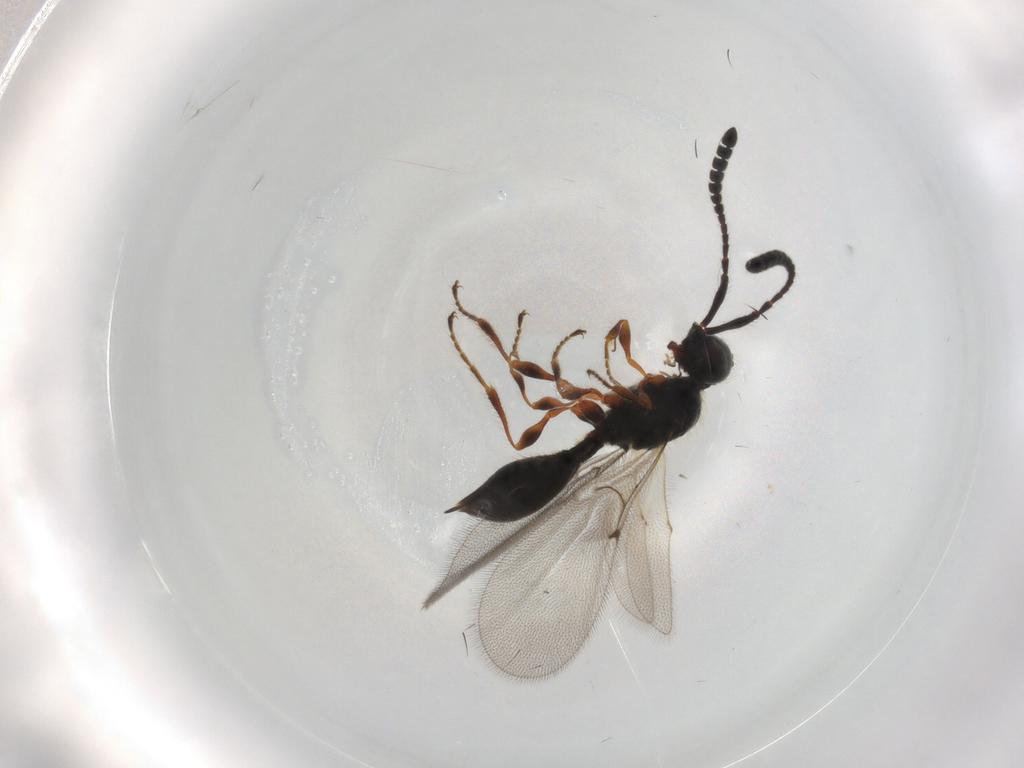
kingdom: Animalia
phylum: Arthropoda
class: Insecta
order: Hymenoptera
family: Diapriidae
